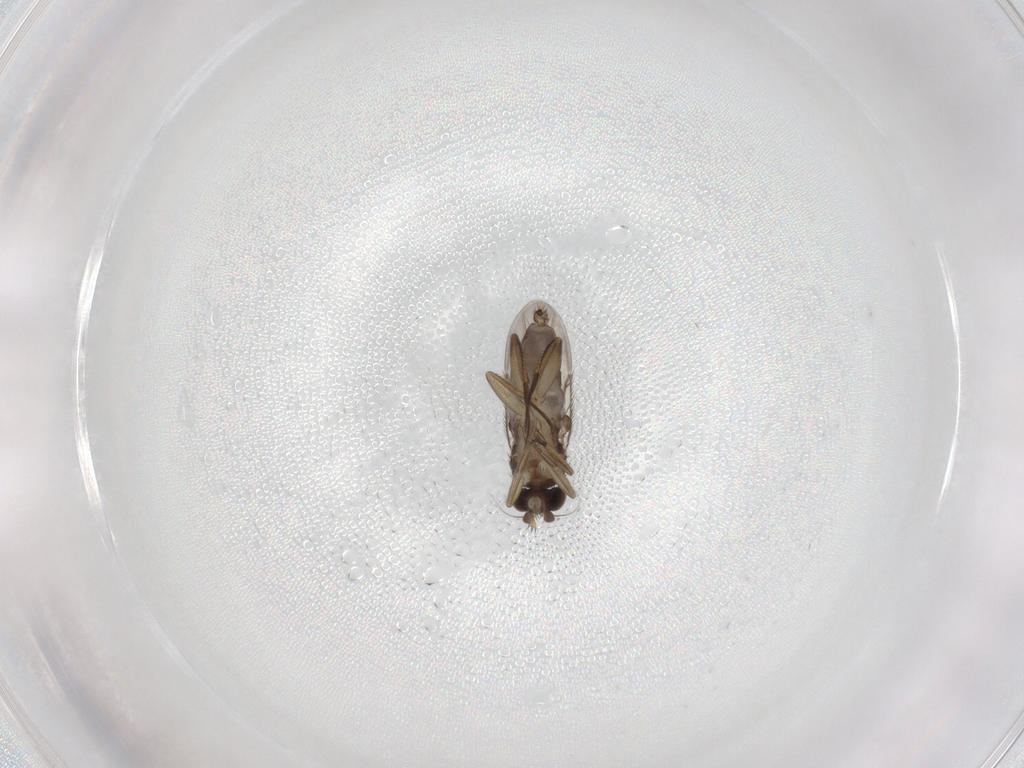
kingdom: Animalia
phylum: Arthropoda
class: Insecta
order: Diptera
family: Phoridae
